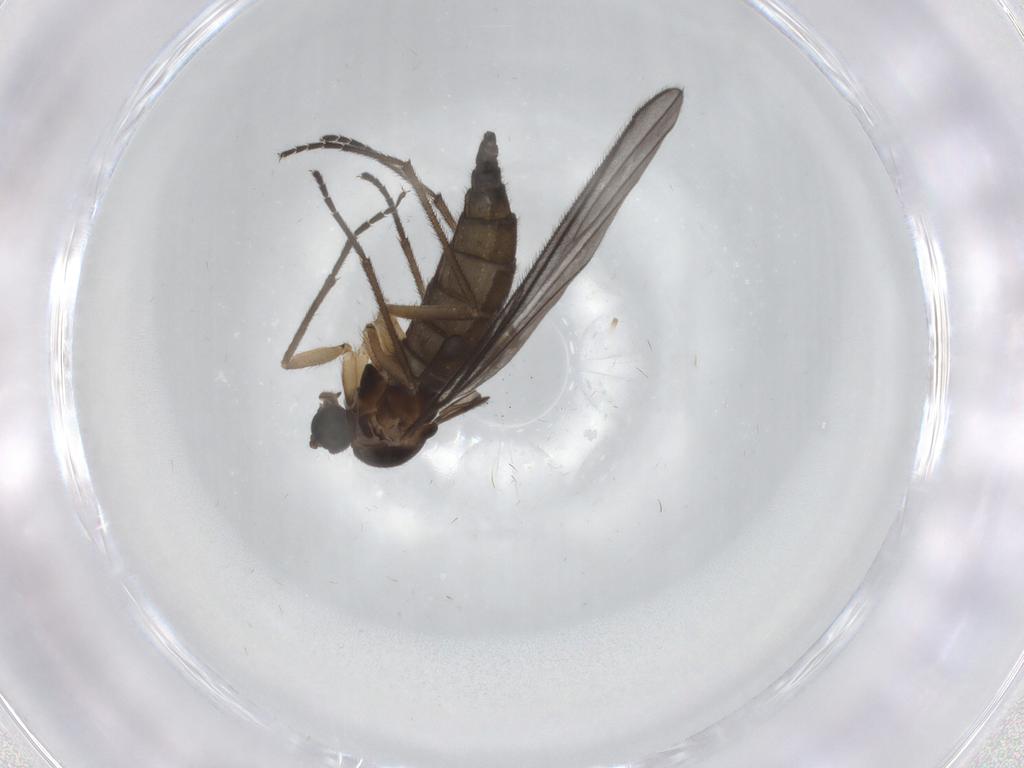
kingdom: Animalia
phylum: Arthropoda
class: Insecta
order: Diptera
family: Sciaridae
